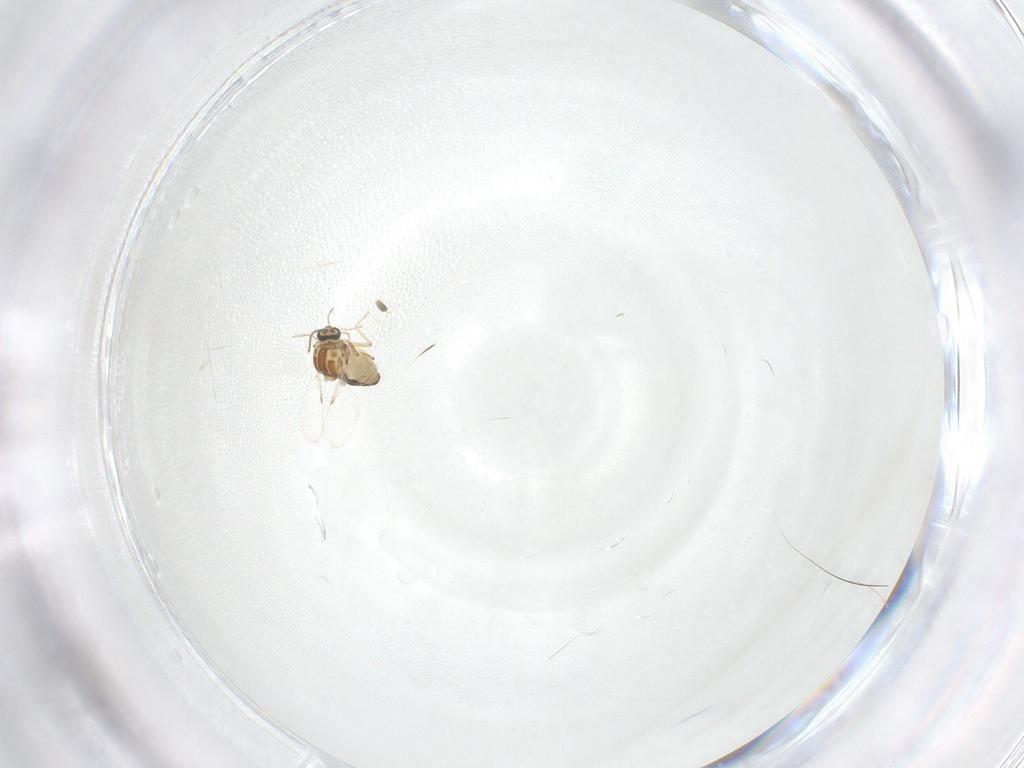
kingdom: Animalia
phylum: Arthropoda
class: Insecta
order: Diptera
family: Ceratopogonidae
